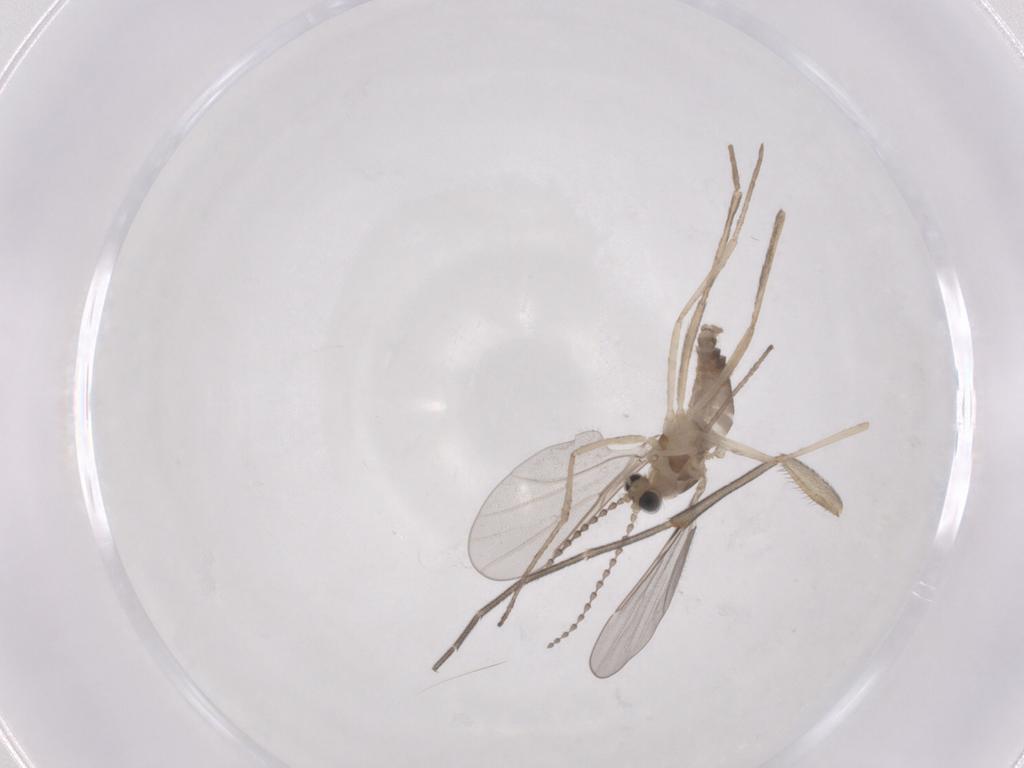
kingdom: Animalia
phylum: Arthropoda
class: Insecta
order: Diptera
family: Cecidomyiidae
